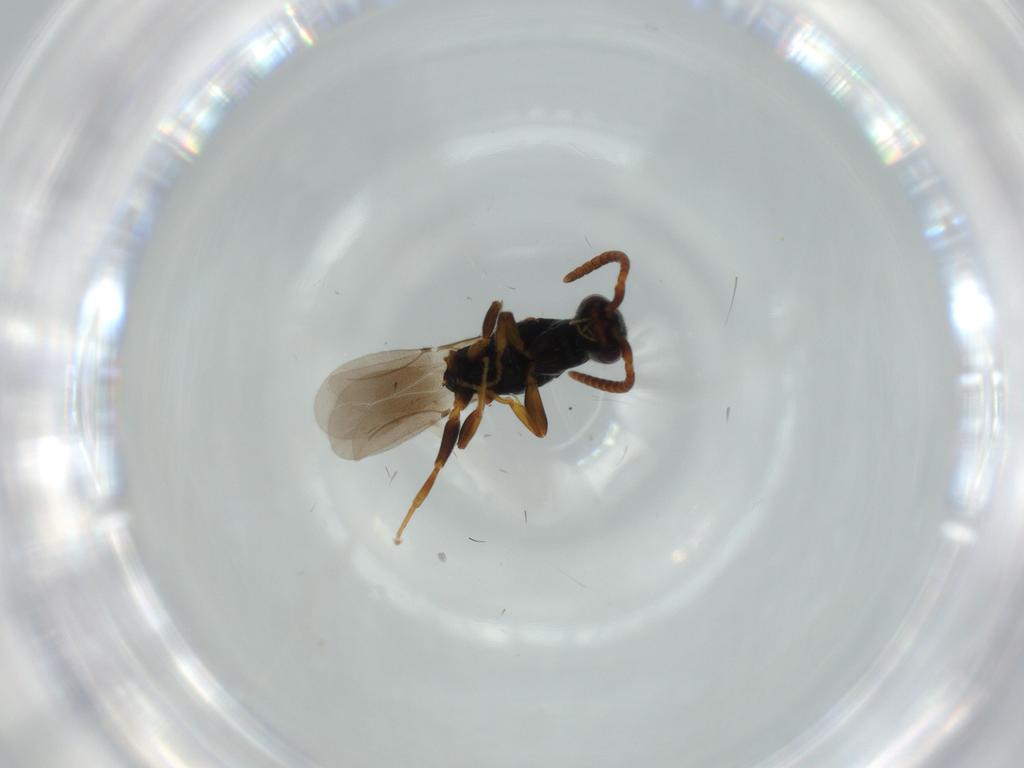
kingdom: Animalia
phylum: Arthropoda
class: Insecta
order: Hymenoptera
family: Bethylidae
